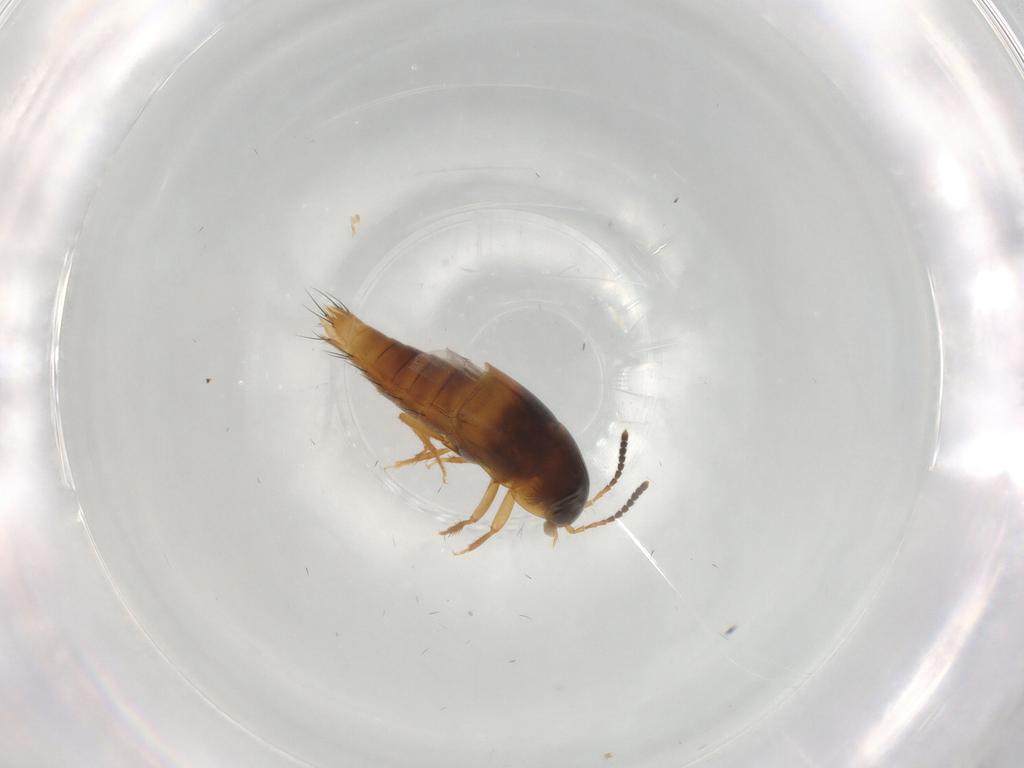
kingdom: Animalia
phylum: Arthropoda
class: Insecta
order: Coleoptera
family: Staphylinidae
